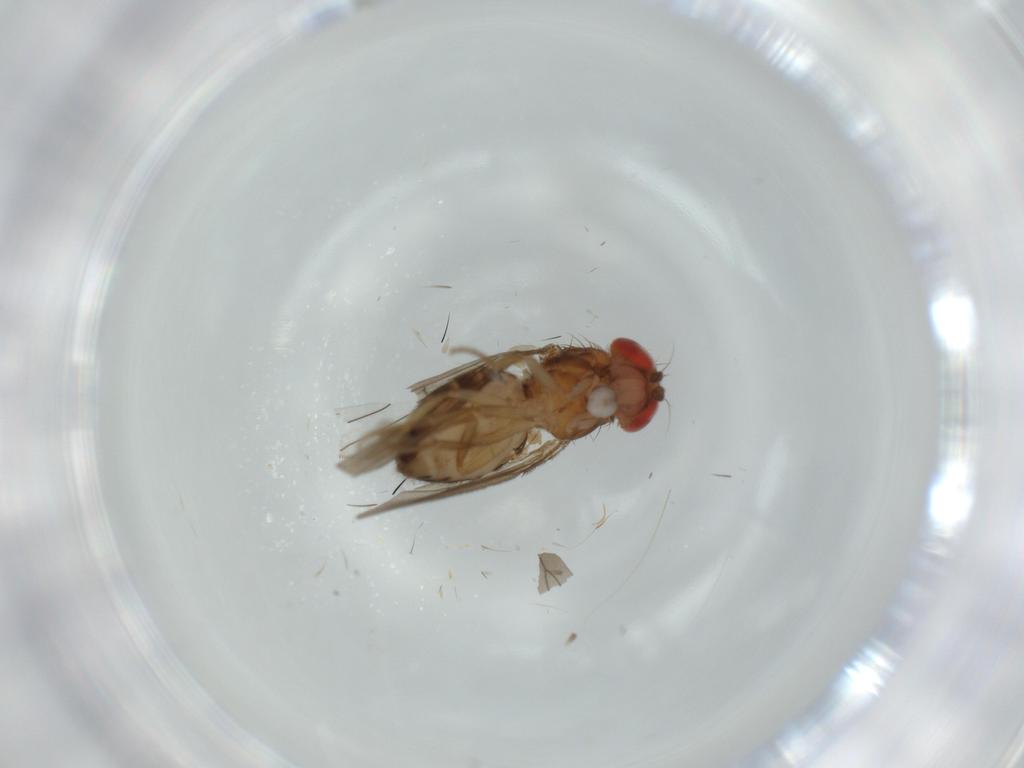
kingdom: Animalia
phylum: Arthropoda
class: Insecta
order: Diptera
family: Drosophilidae
